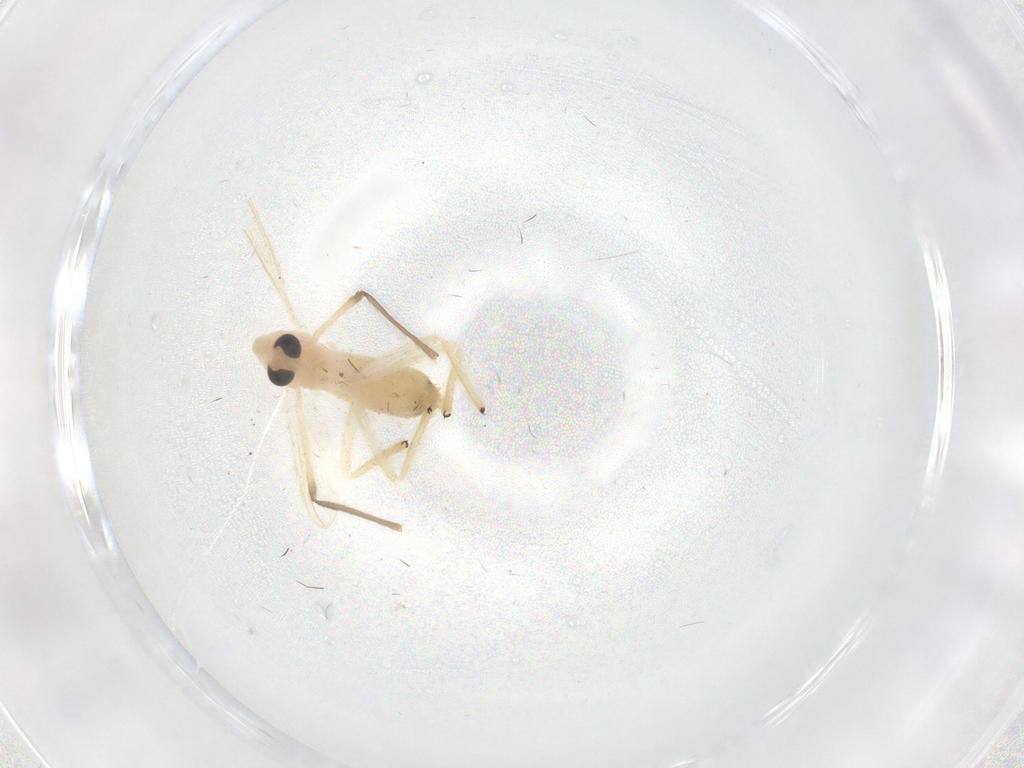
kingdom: Animalia
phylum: Arthropoda
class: Insecta
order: Diptera
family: Chironomidae
